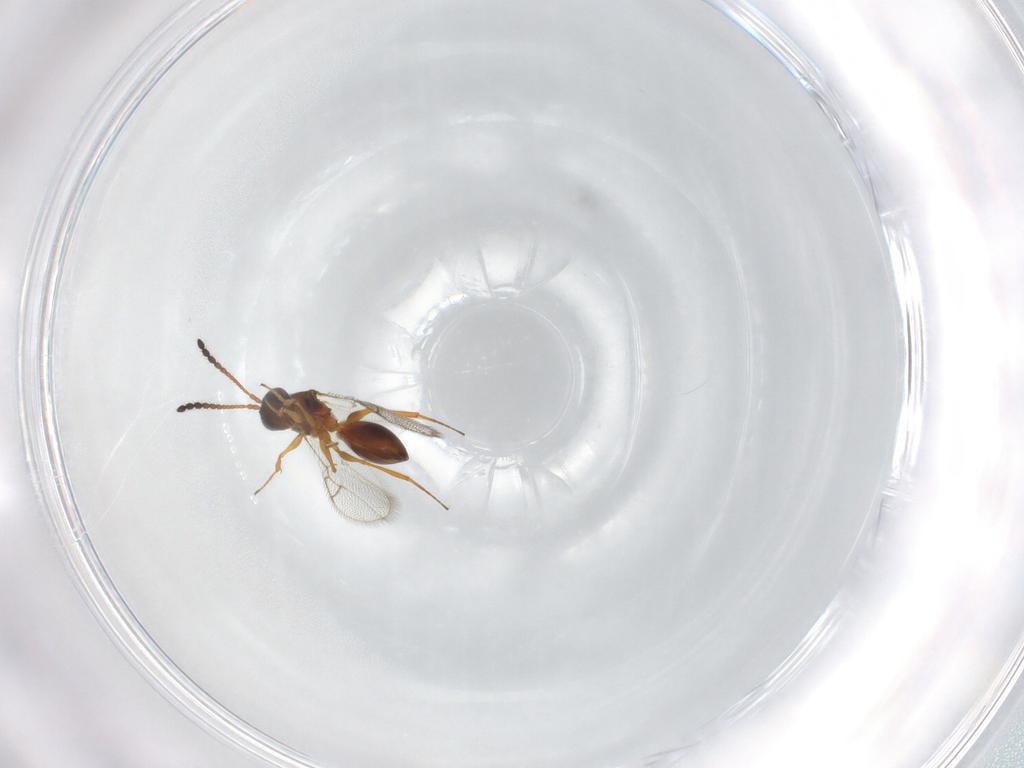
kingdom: Animalia
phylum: Arthropoda
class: Insecta
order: Hymenoptera
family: Figitidae
